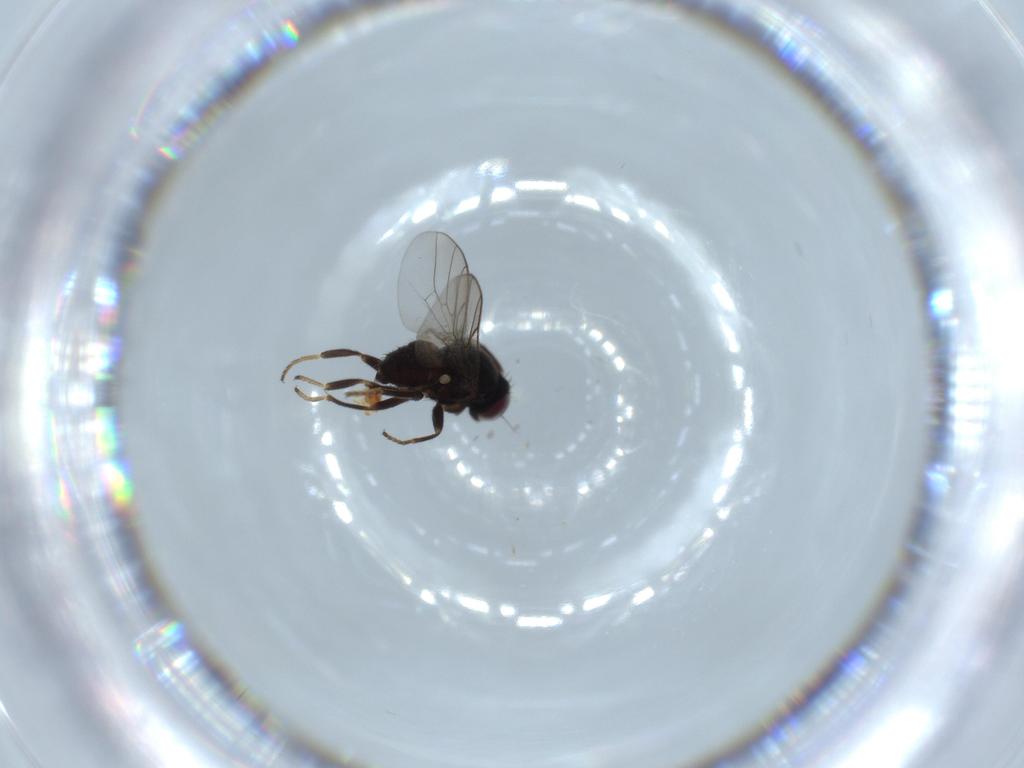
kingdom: Animalia
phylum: Arthropoda
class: Insecta
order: Diptera
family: Chloropidae
